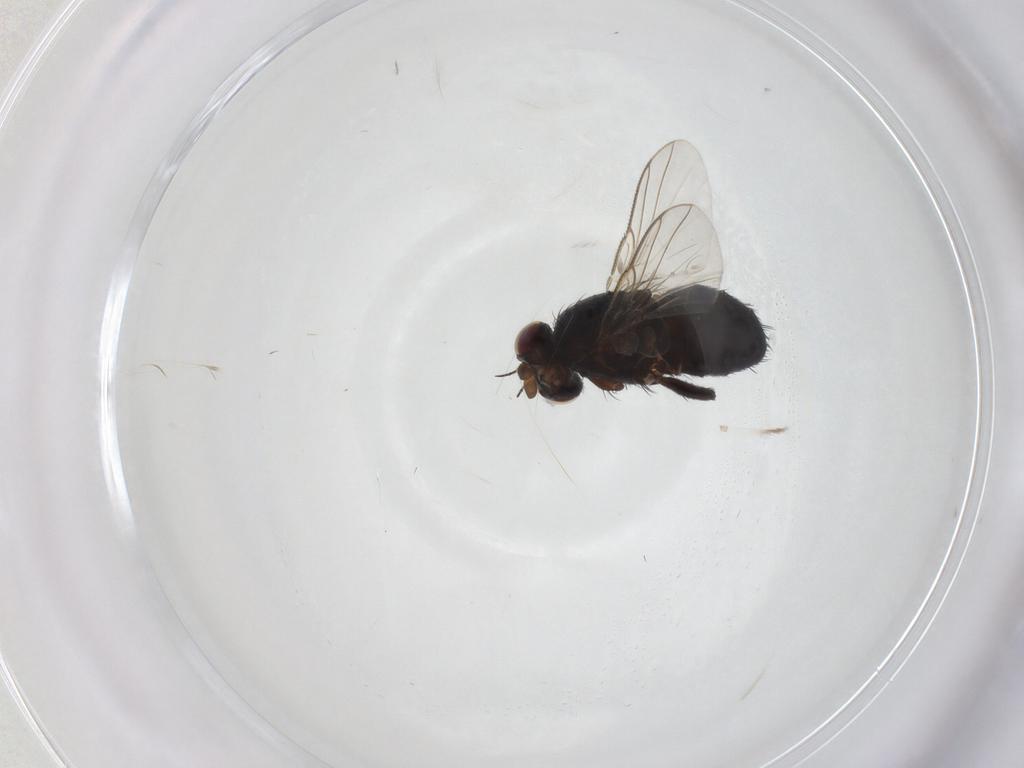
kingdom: Animalia
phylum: Arthropoda
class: Insecta
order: Diptera
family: Tachinidae
